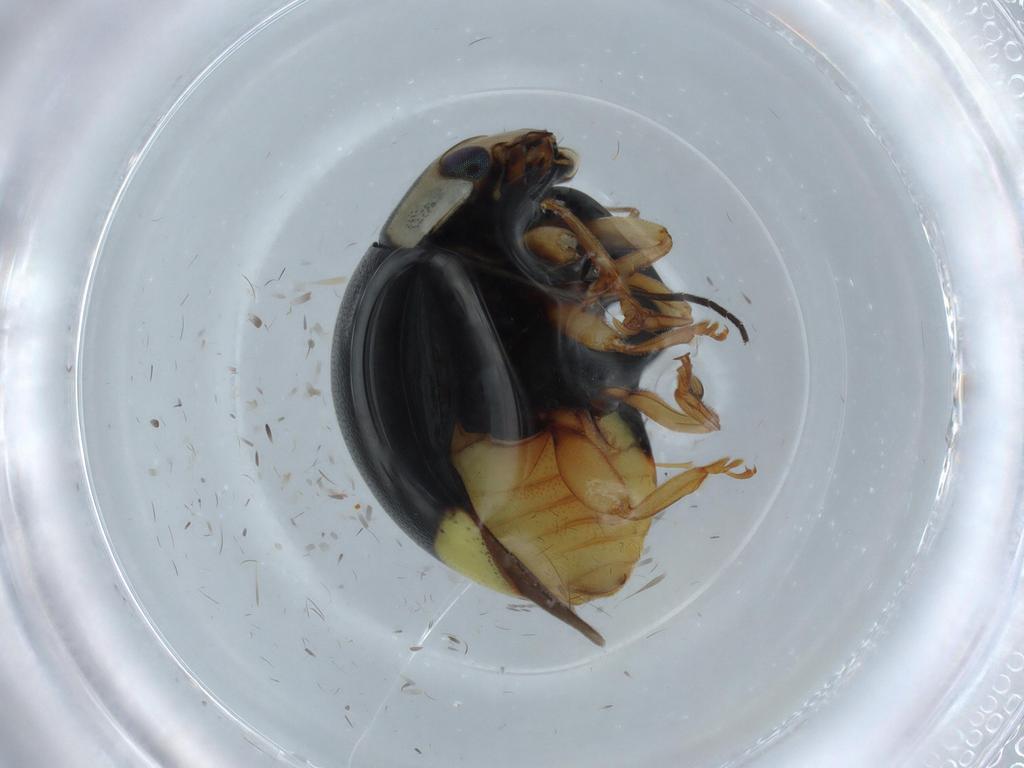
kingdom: Animalia
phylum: Arthropoda
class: Insecta
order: Coleoptera
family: Coccinellidae
